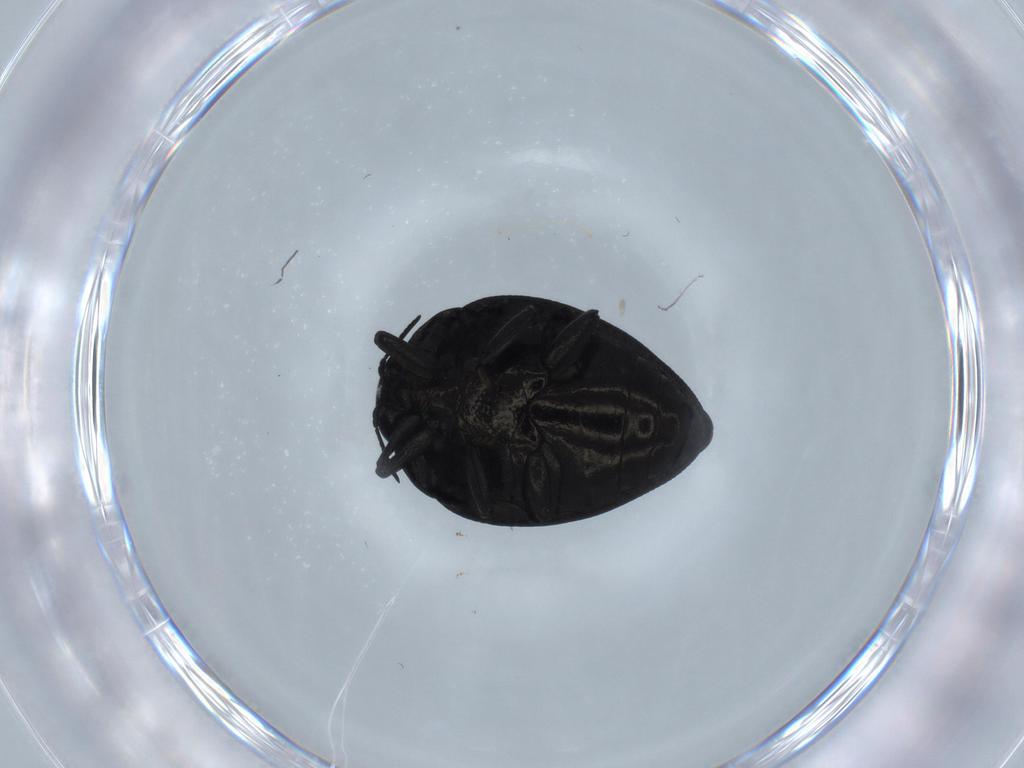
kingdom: Animalia
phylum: Arthropoda
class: Insecta
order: Coleoptera
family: Buprestidae
